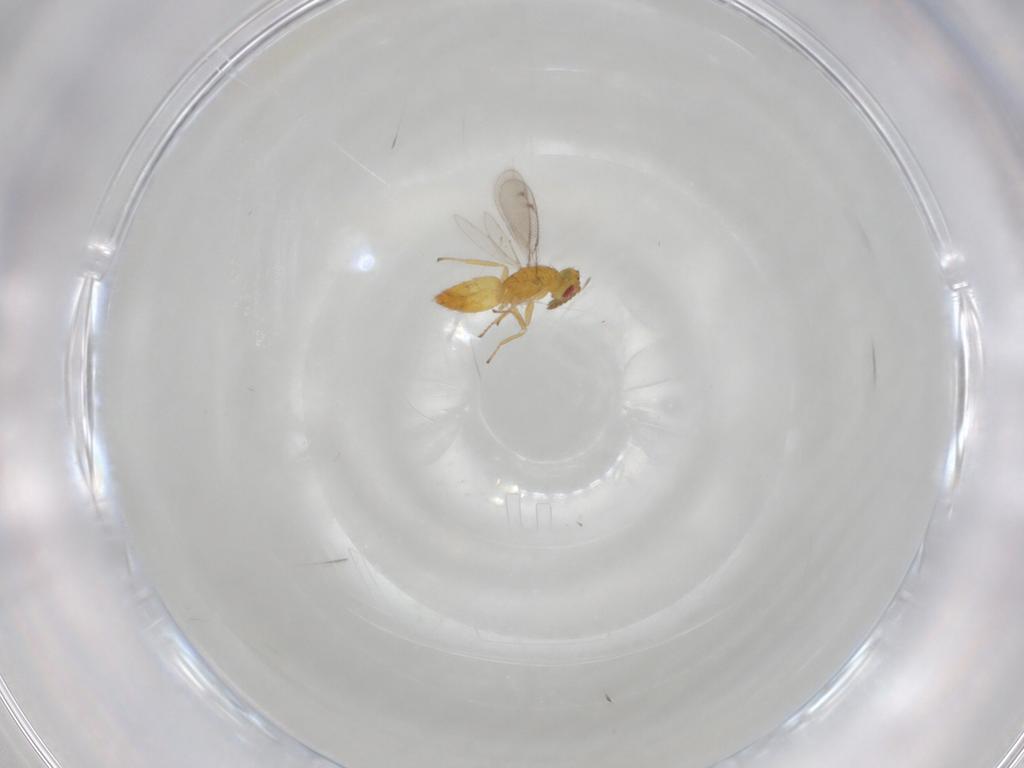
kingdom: Animalia
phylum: Arthropoda
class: Insecta
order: Hymenoptera
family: Eulophidae
